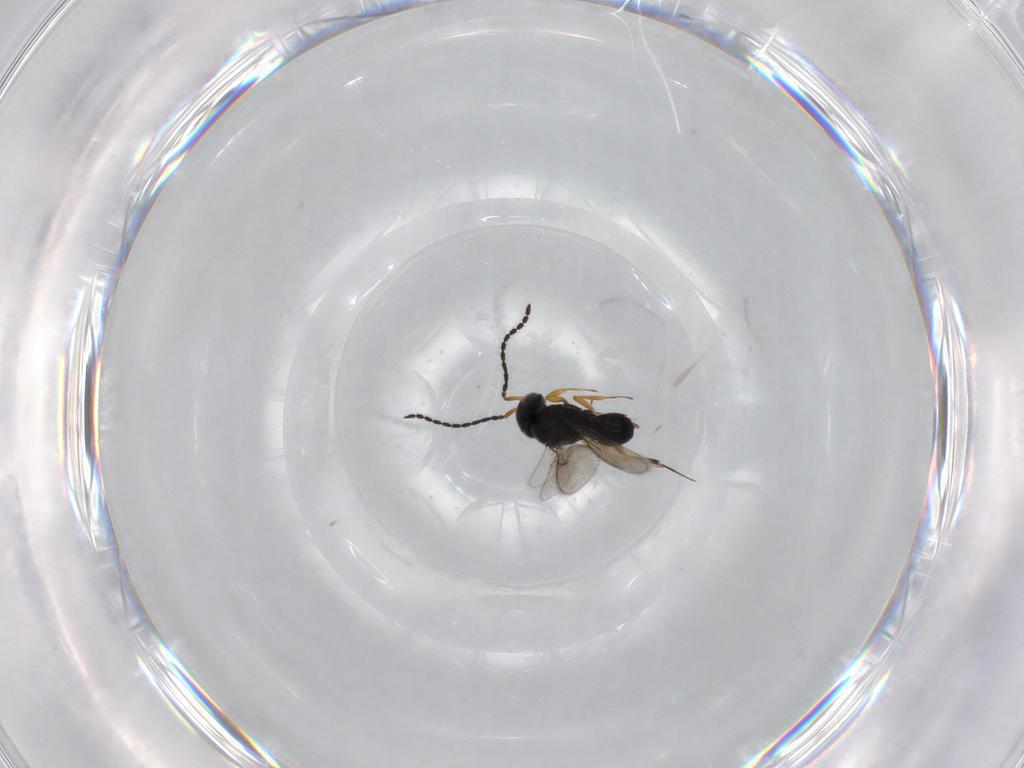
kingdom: Animalia
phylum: Arthropoda
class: Insecta
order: Hymenoptera
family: Scelionidae
